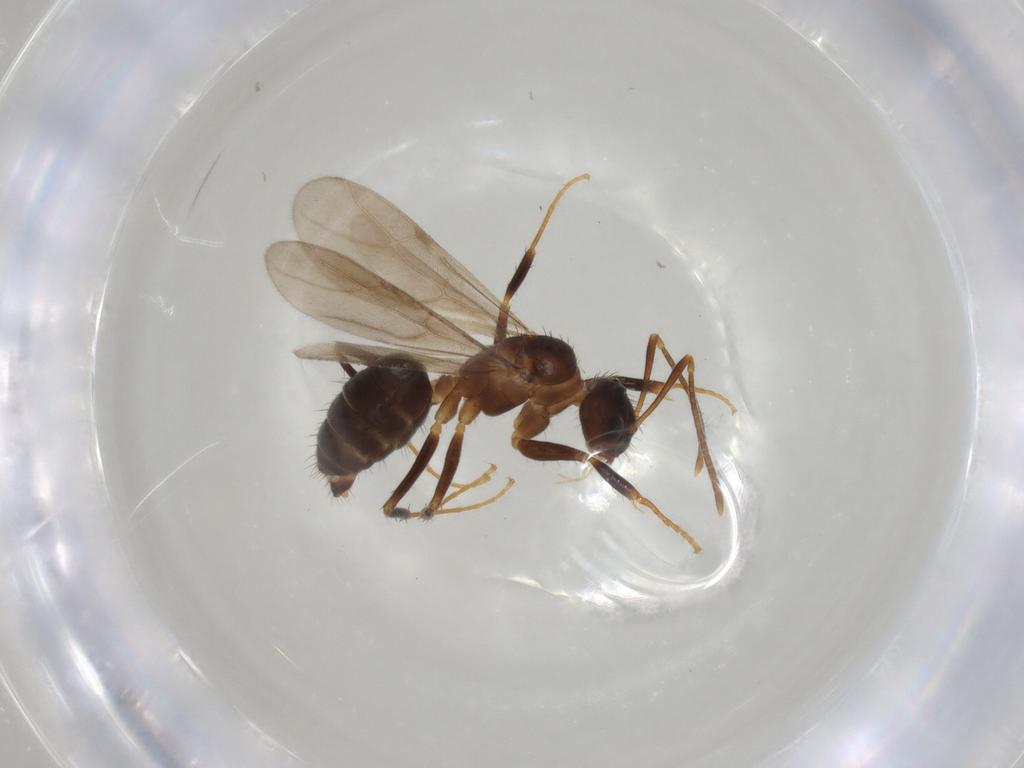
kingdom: Animalia
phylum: Arthropoda
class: Insecta
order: Hymenoptera
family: Formicidae
